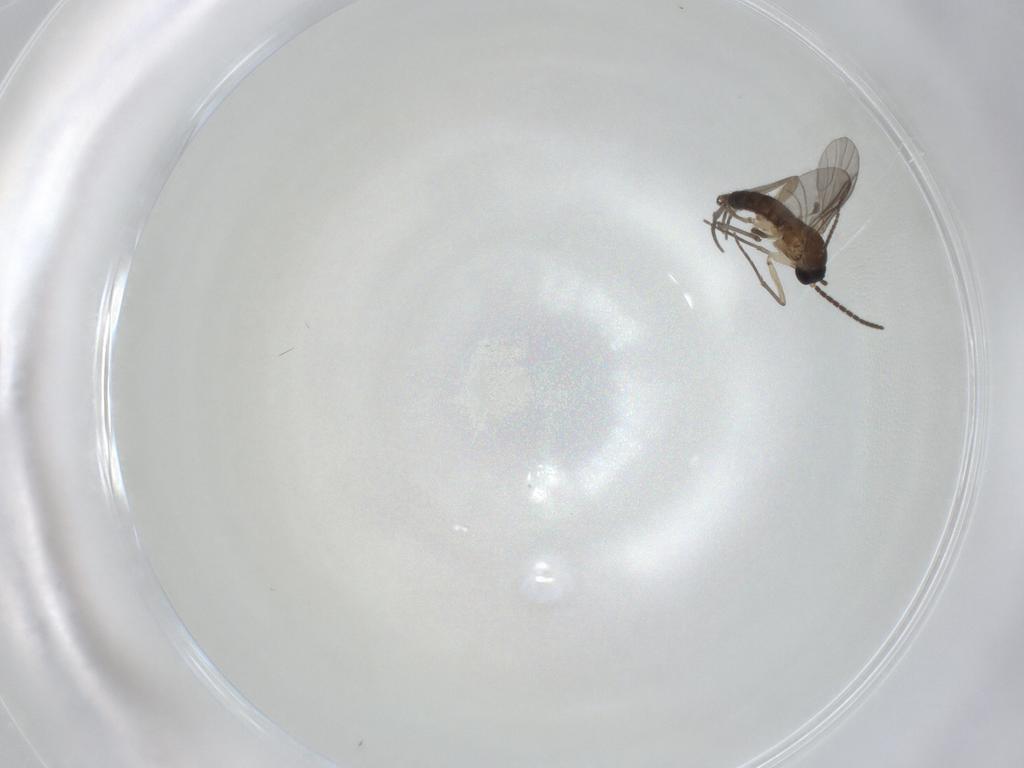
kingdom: Animalia
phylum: Arthropoda
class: Insecta
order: Diptera
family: Sciaridae
